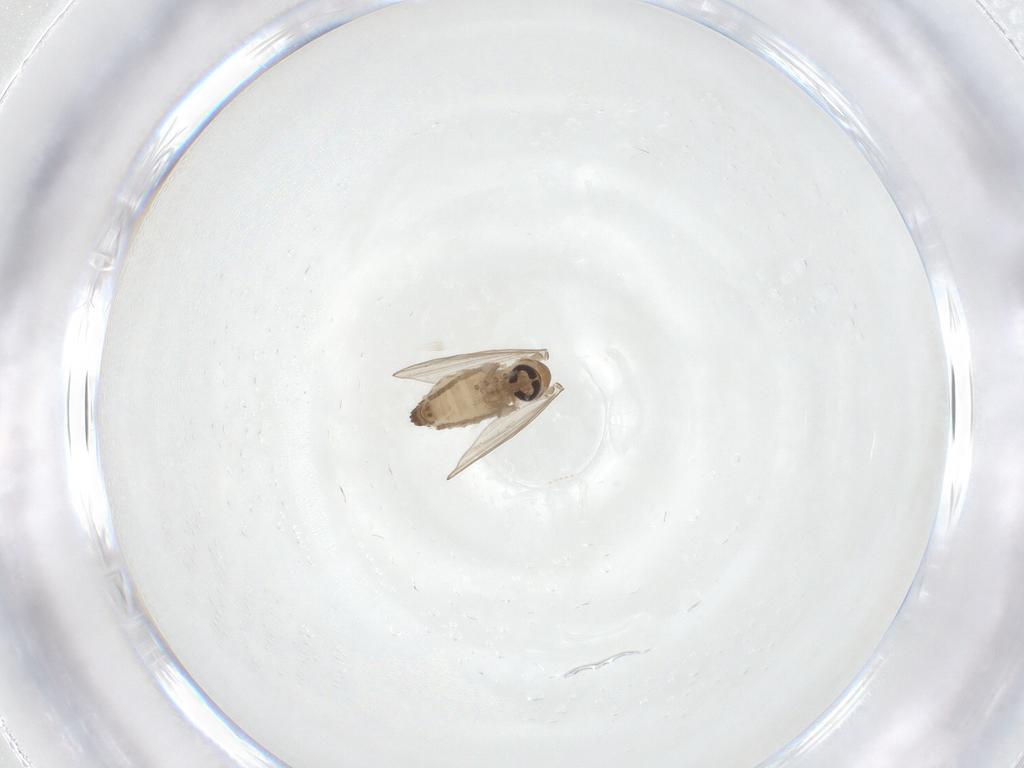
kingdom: Animalia
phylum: Arthropoda
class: Insecta
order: Diptera
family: Psychodidae
